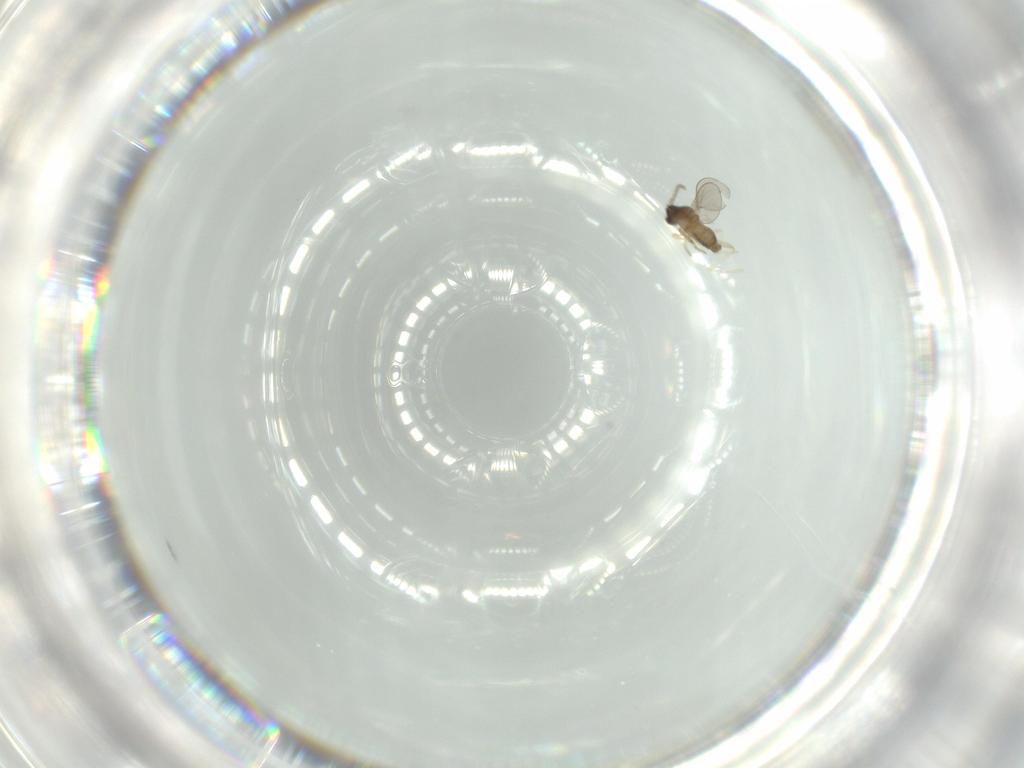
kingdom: Animalia
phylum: Arthropoda
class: Insecta
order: Diptera
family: Cecidomyiidae
